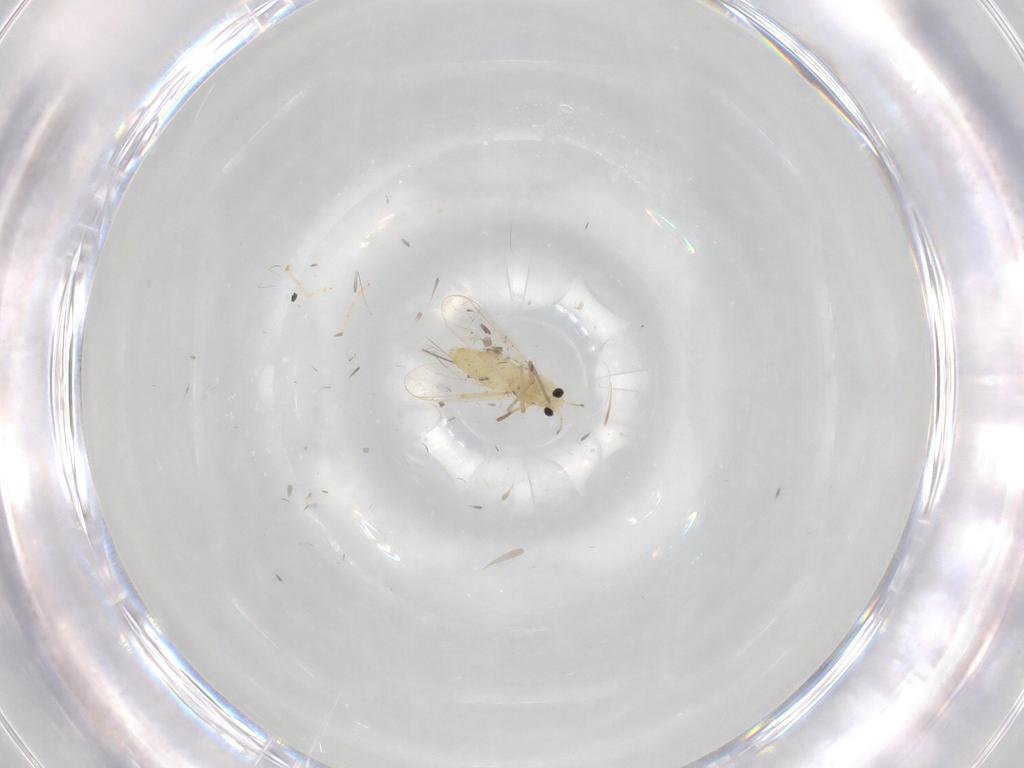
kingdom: Animalia
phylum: Arthropoda
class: Insecta
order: Diptera
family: Chironomidae
